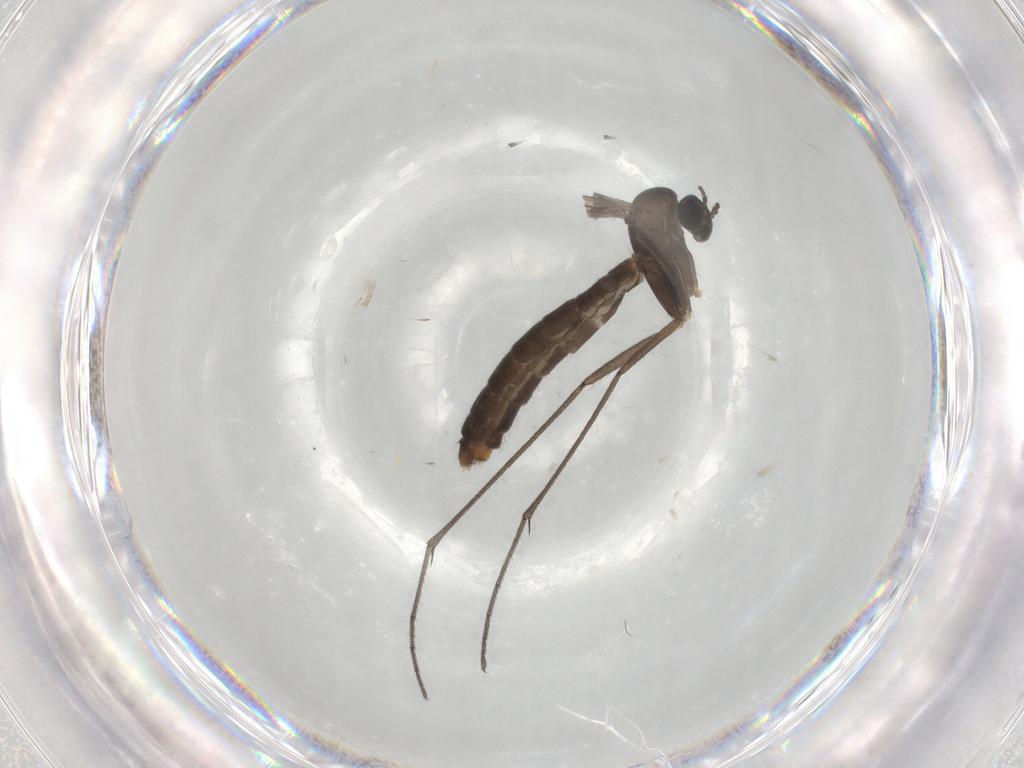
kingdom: Animalia
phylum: Arthropoda
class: Insecta
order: Diptera
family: Keroplatidae
